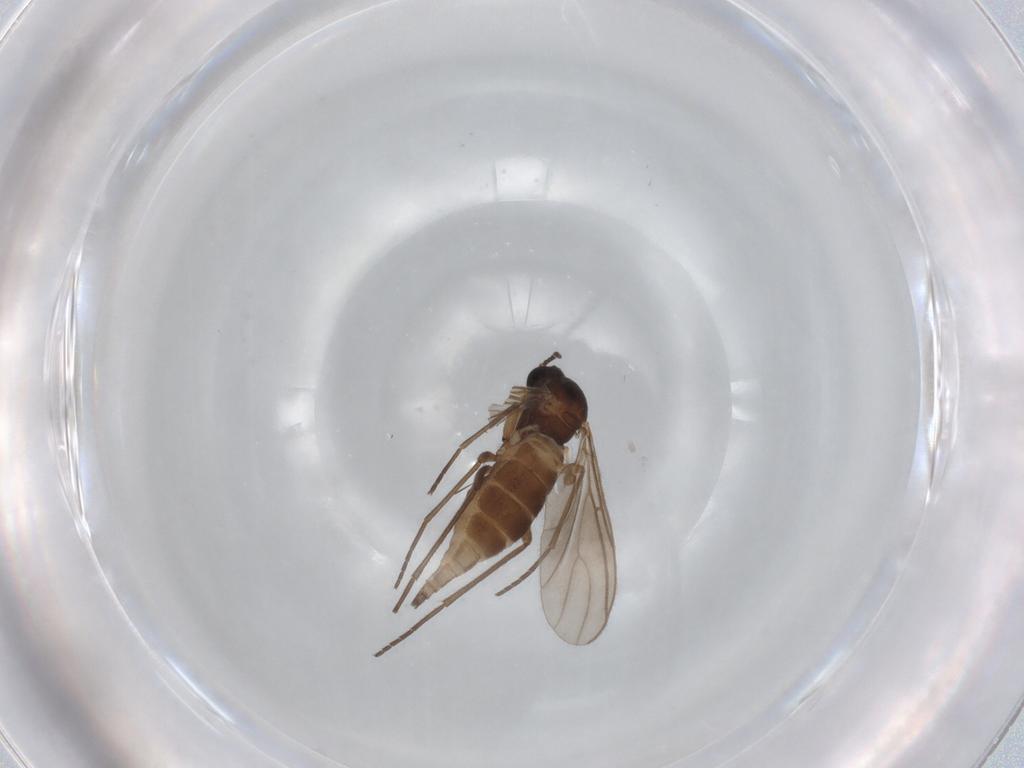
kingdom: Animalia
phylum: Arthropoda
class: Insecta
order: Diptera
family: Sciaridae
